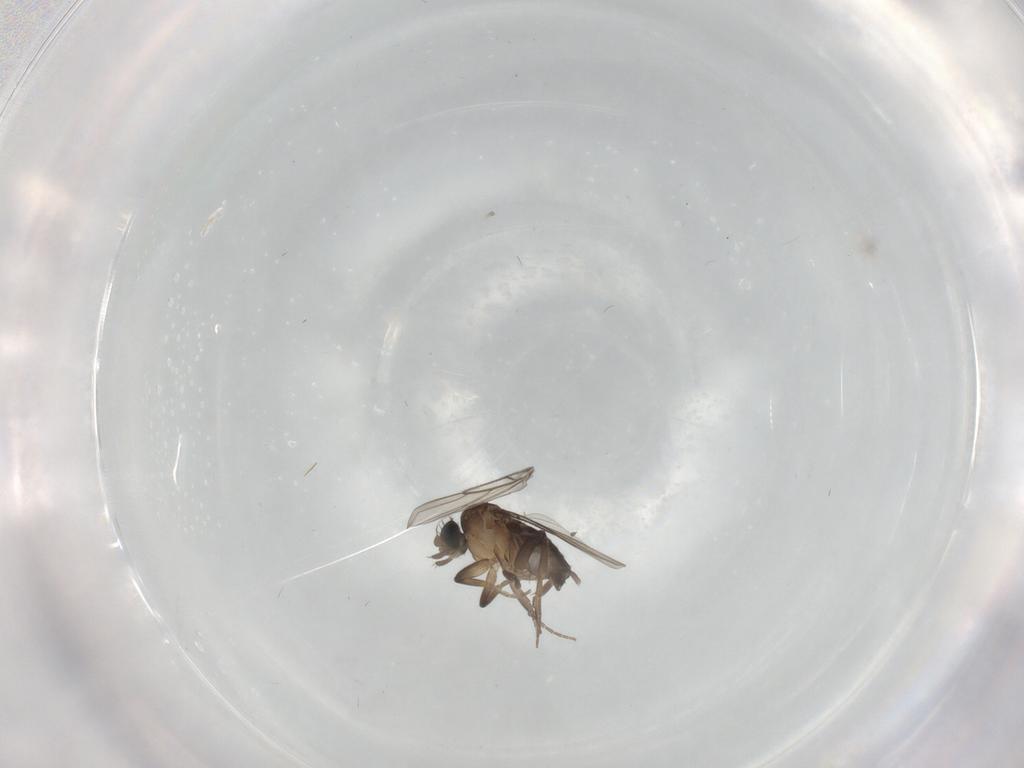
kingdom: Animalia
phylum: Arthropoda
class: Insecta
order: Diptera
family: Phoridae
